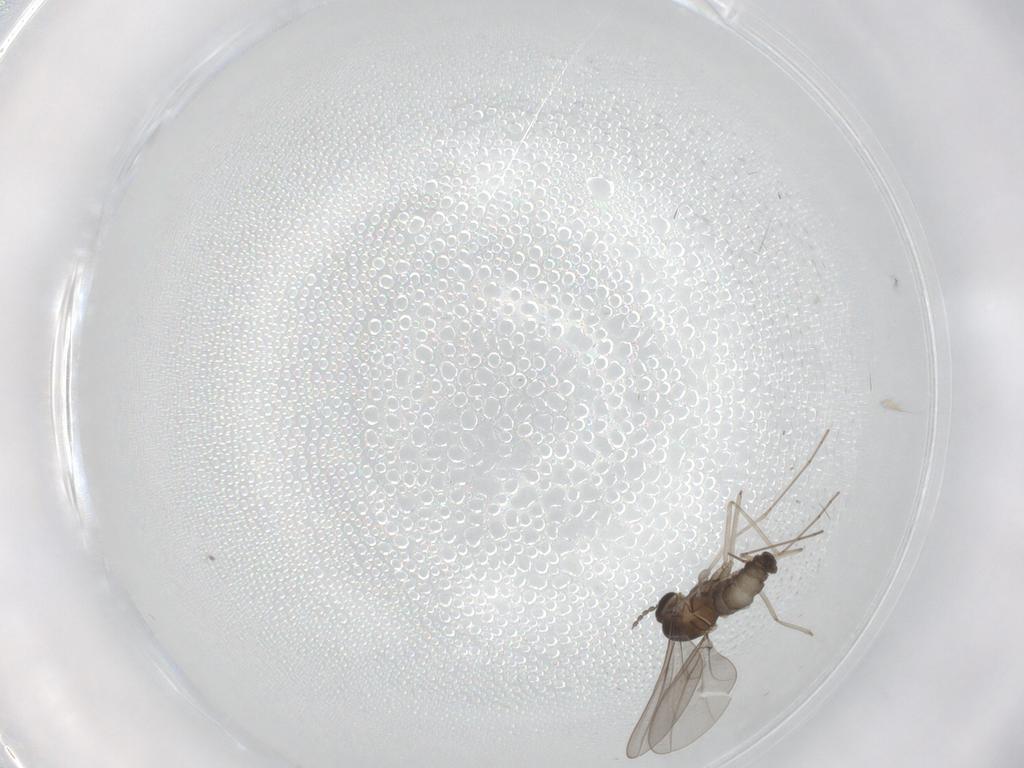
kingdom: Animalia
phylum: Arthropoda
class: Insecta
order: Diptera
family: Cecidomyiidae
